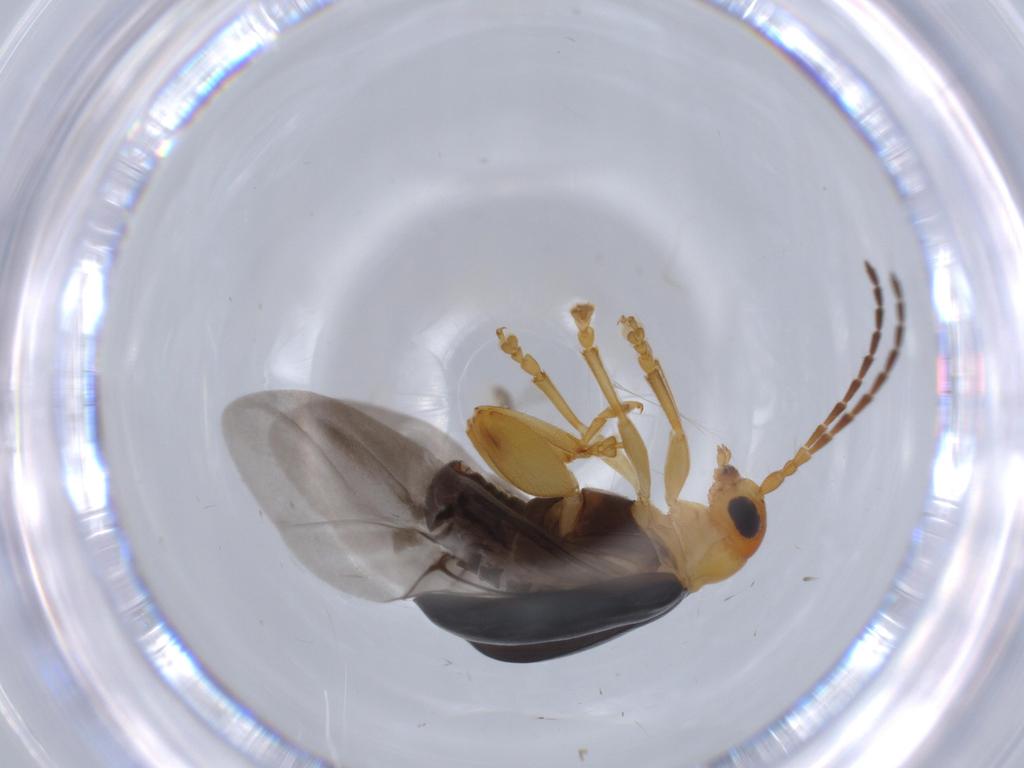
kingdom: Animalia
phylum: Arthropoda
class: Insecta
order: Coleoptera
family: Chrysomelidae
